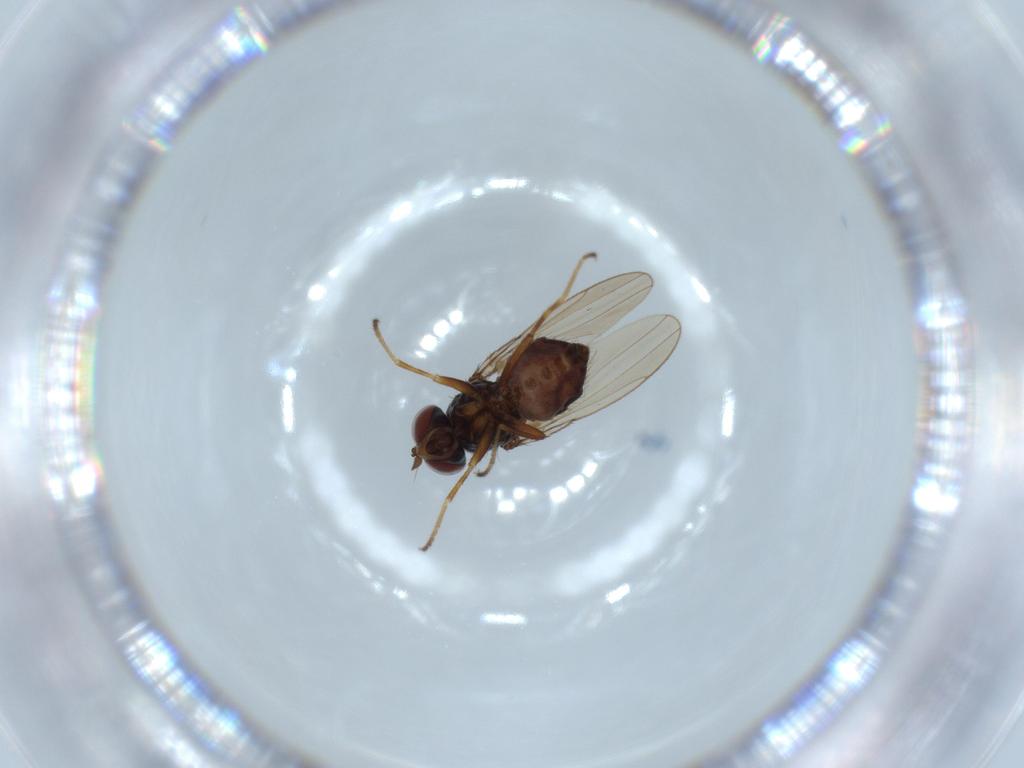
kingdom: Animalia
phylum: Arthropoda
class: Insecta
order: Diptera
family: Ephydridae
